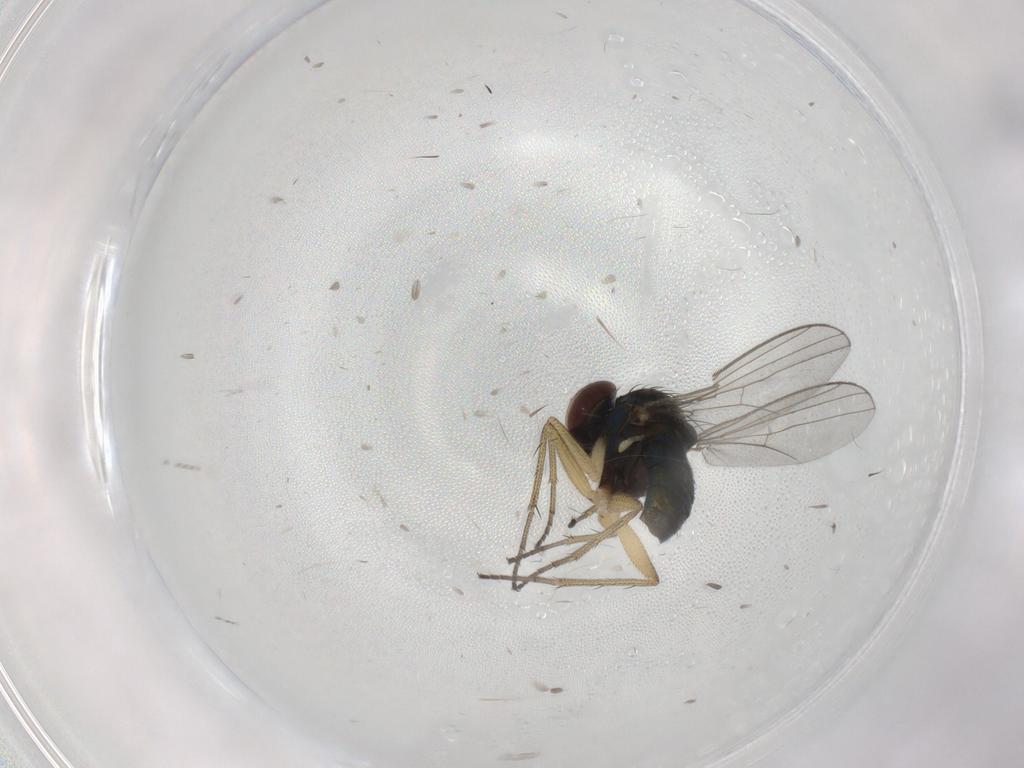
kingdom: Animalia
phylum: Arthropoda
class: Insecta
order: Diptera
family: Dolichopodidae
